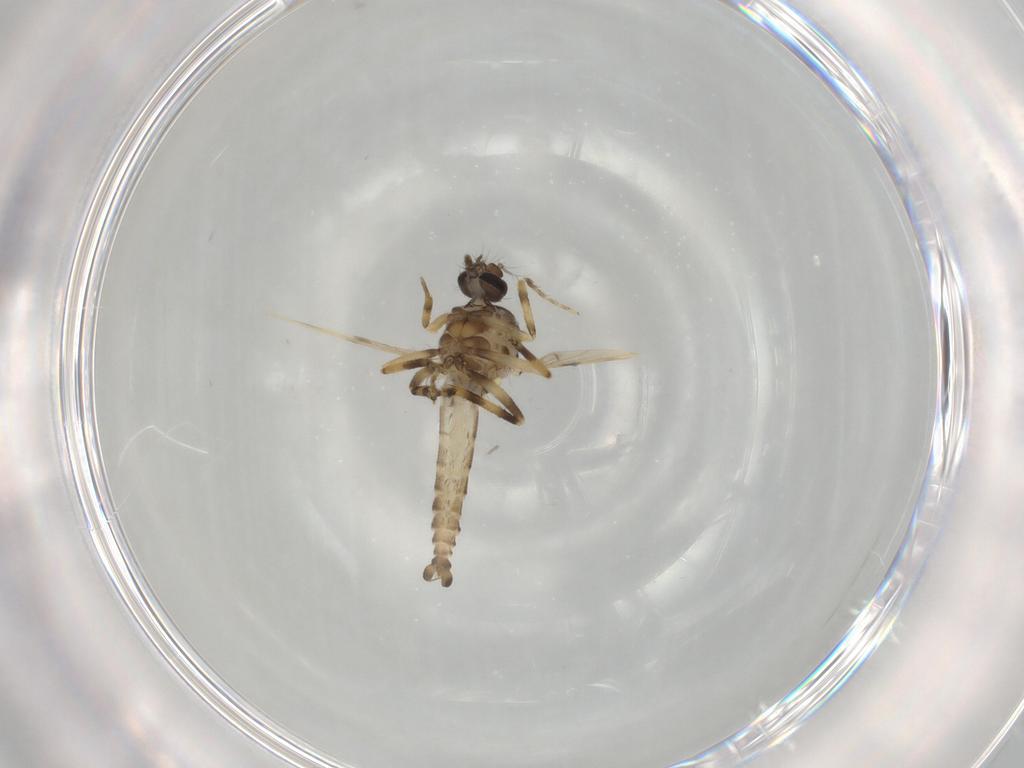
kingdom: Animalia
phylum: Arthropoda
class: Insecta
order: Diptera
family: Ceratopogonidae
